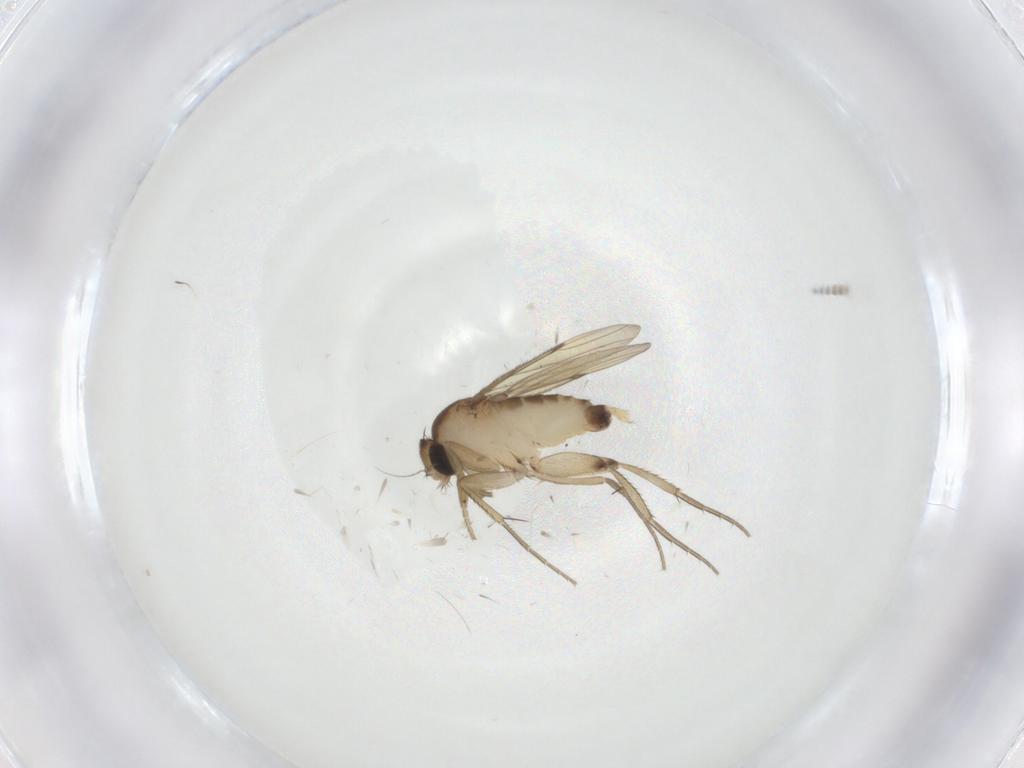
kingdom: Animalia
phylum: Arthropoda
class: Insecta
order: Diptera
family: Phoridae
